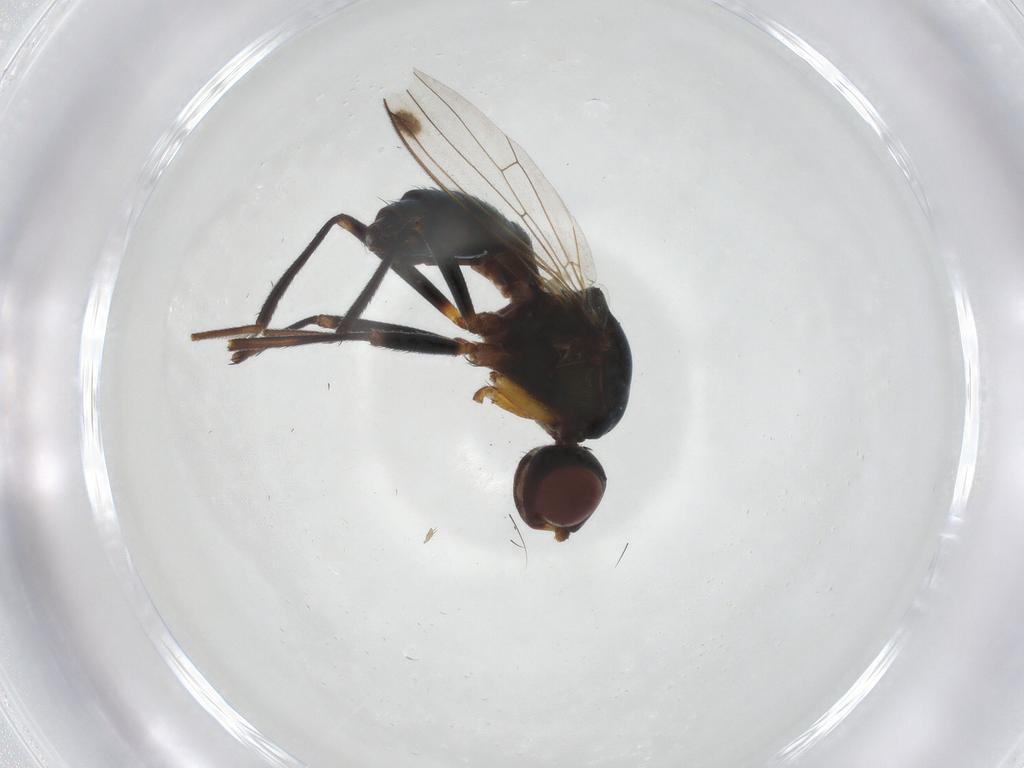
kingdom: Animalia
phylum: Arthropoda
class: Insecta
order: Diptera
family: Sepsidae
